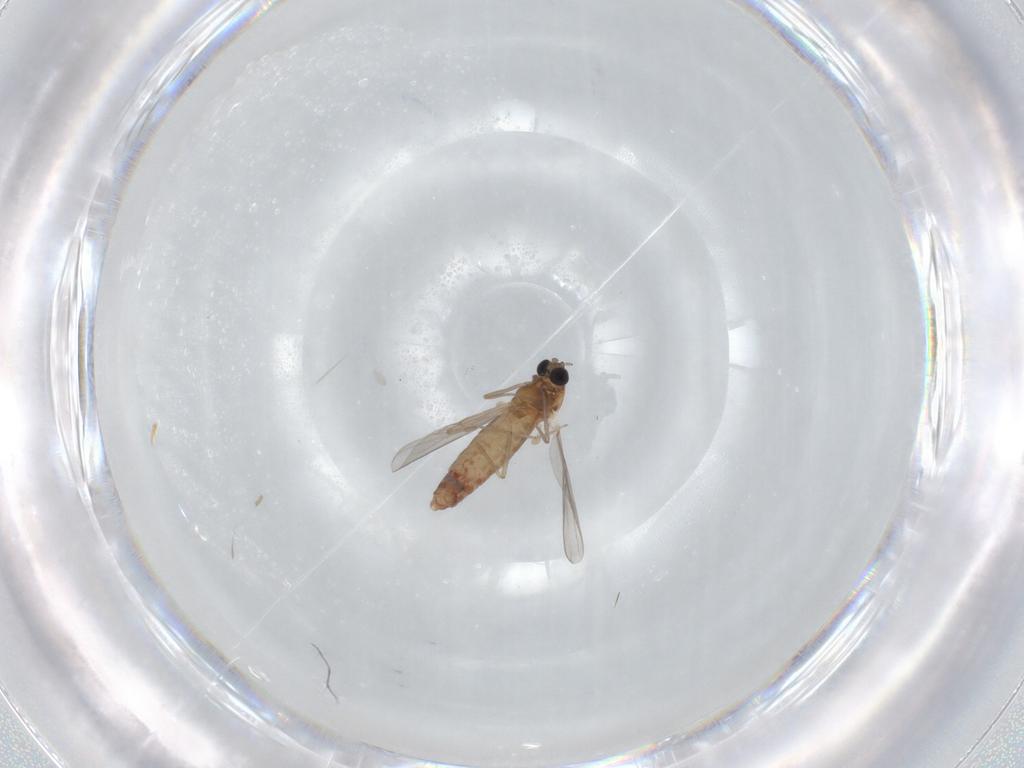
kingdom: Animalia
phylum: Arthropoda
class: Insecta
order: Diptera
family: Chironomidae
